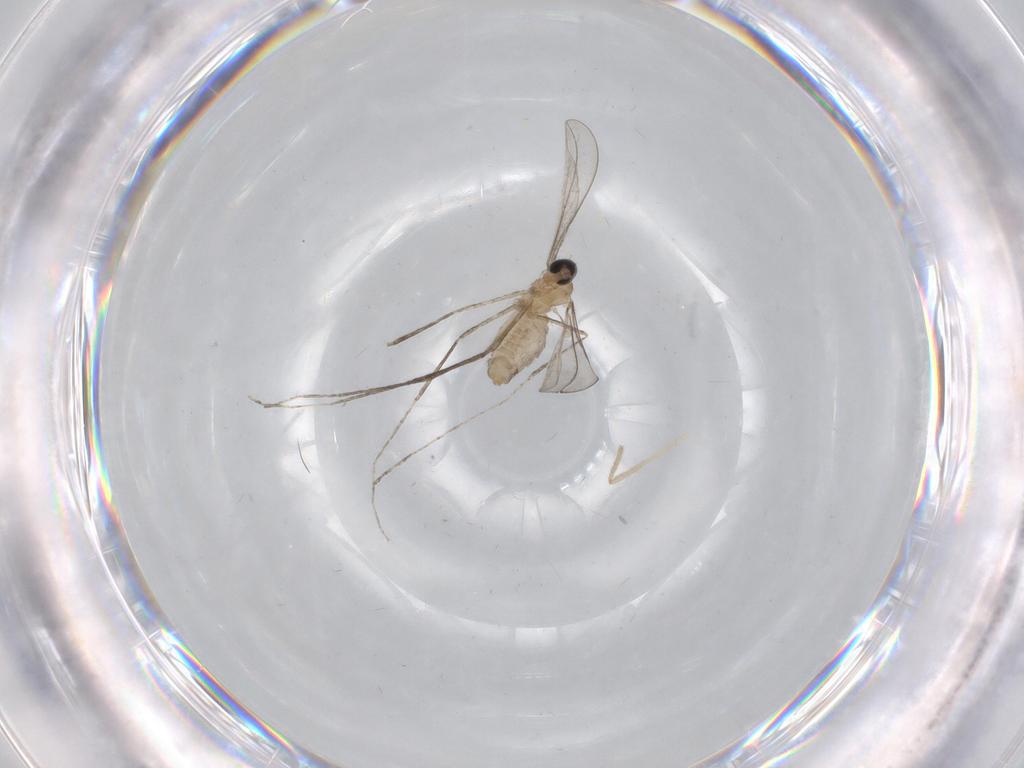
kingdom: Animalia
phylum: Arthropoda
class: Insecta
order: Diptera
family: Cecidomyiidae
